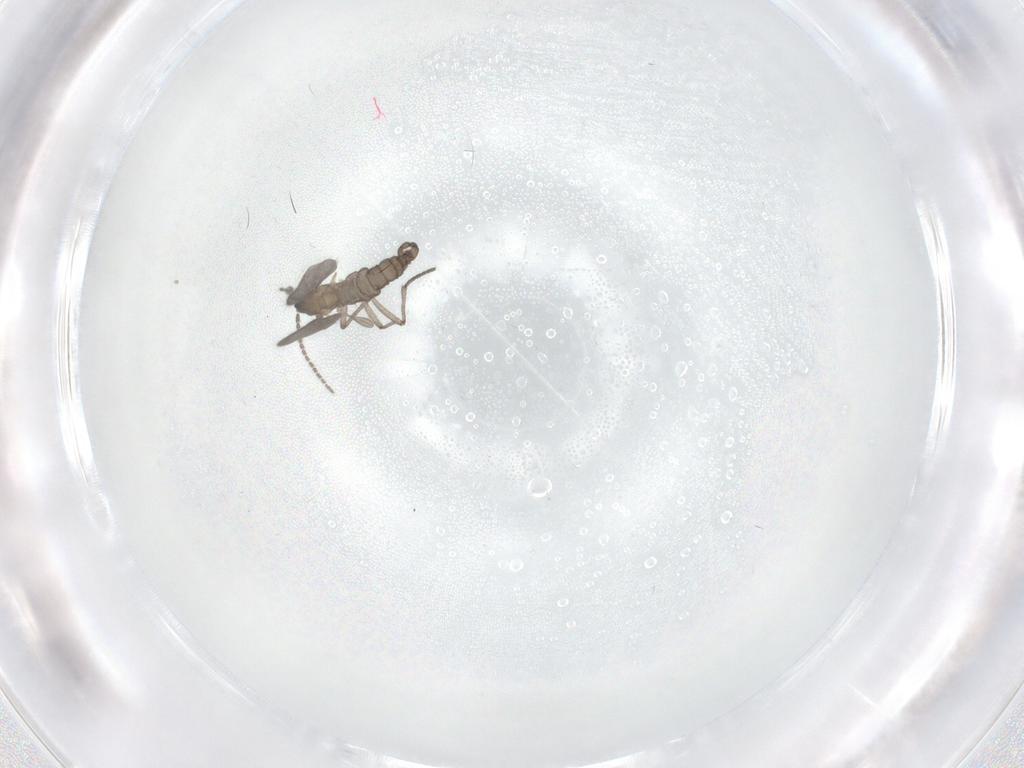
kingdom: Animalia
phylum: Arthropoda
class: Insecta
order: Diptera
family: Sciaridae
